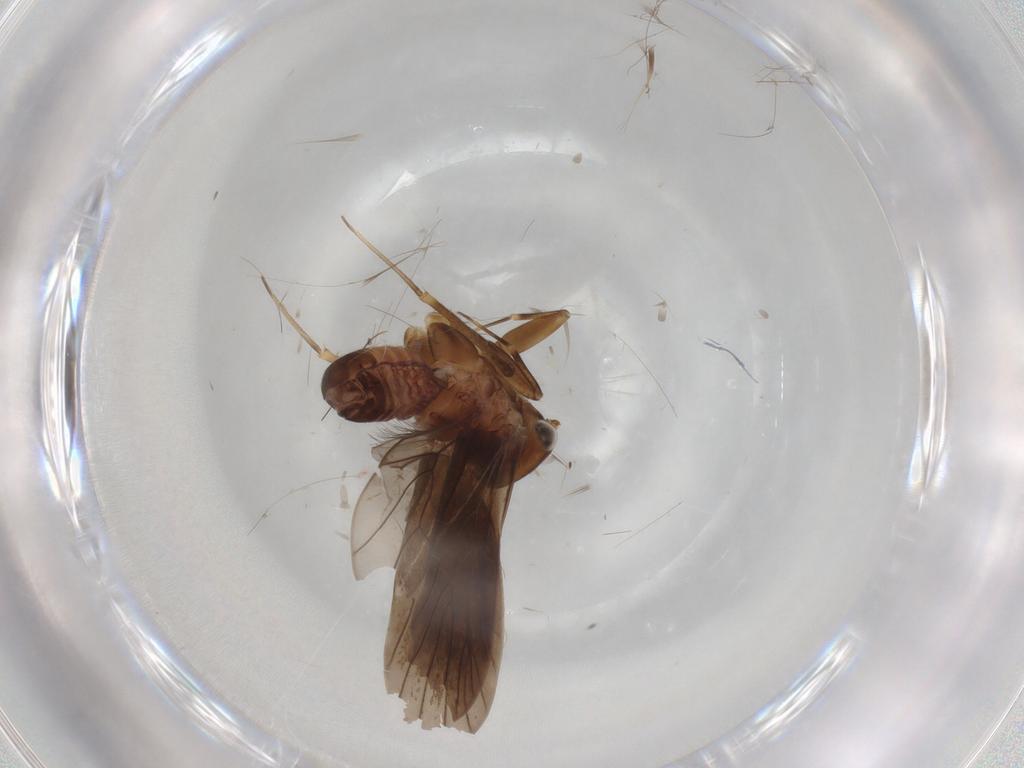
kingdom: Animalia
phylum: Arthropoda
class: Insecta
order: Psocodea
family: Amphientomidae
